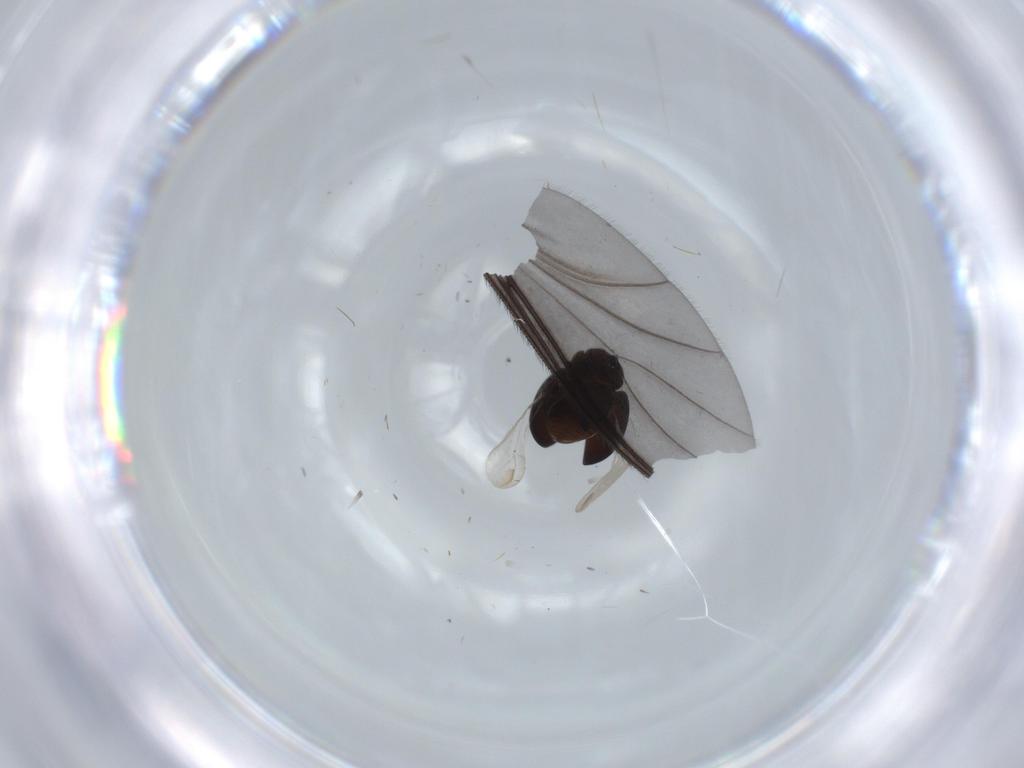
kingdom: Animalia
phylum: Arthropoda
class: Insecta
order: Coleoptera
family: Coccinellidae
